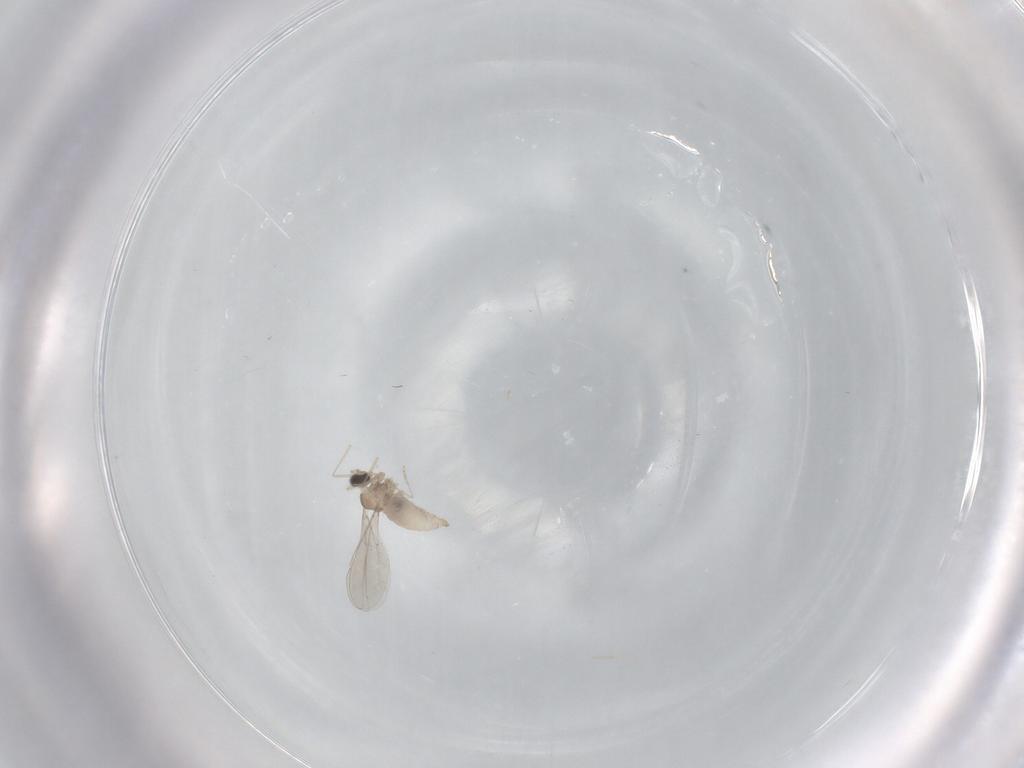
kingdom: Animalia
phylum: Arthropoda
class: Insecta
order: Diptera
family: Cecidomyiidae
